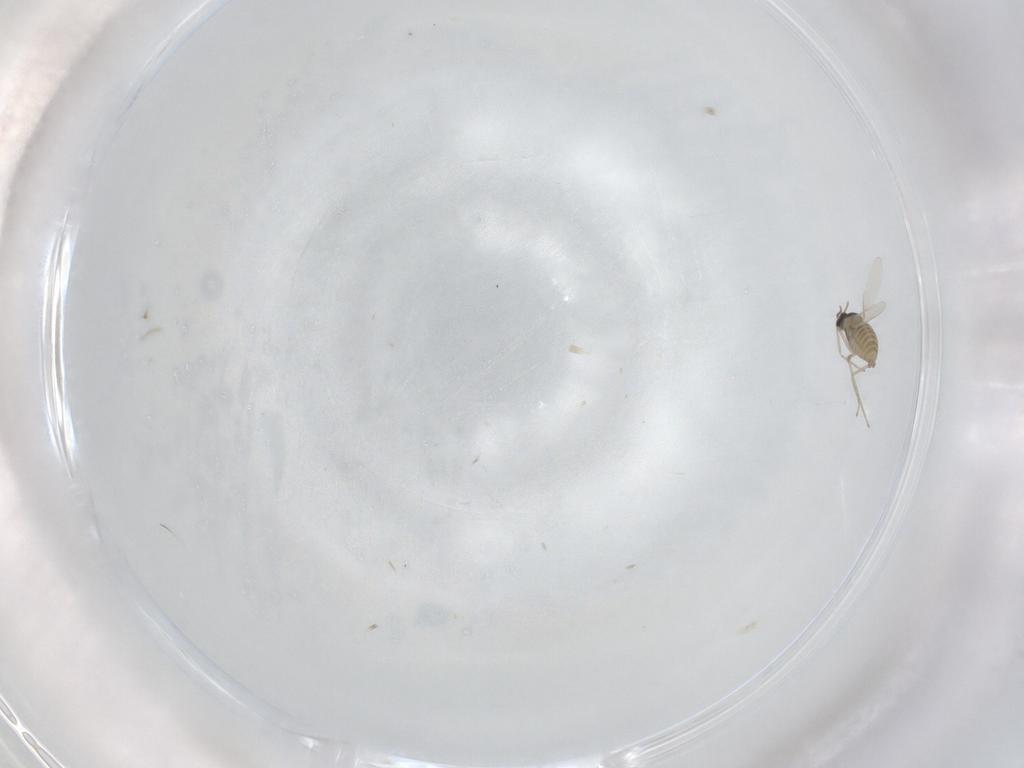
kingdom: Animalia
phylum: Arthropoda
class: Insecta
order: Diptera
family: Cecidomyiidae
